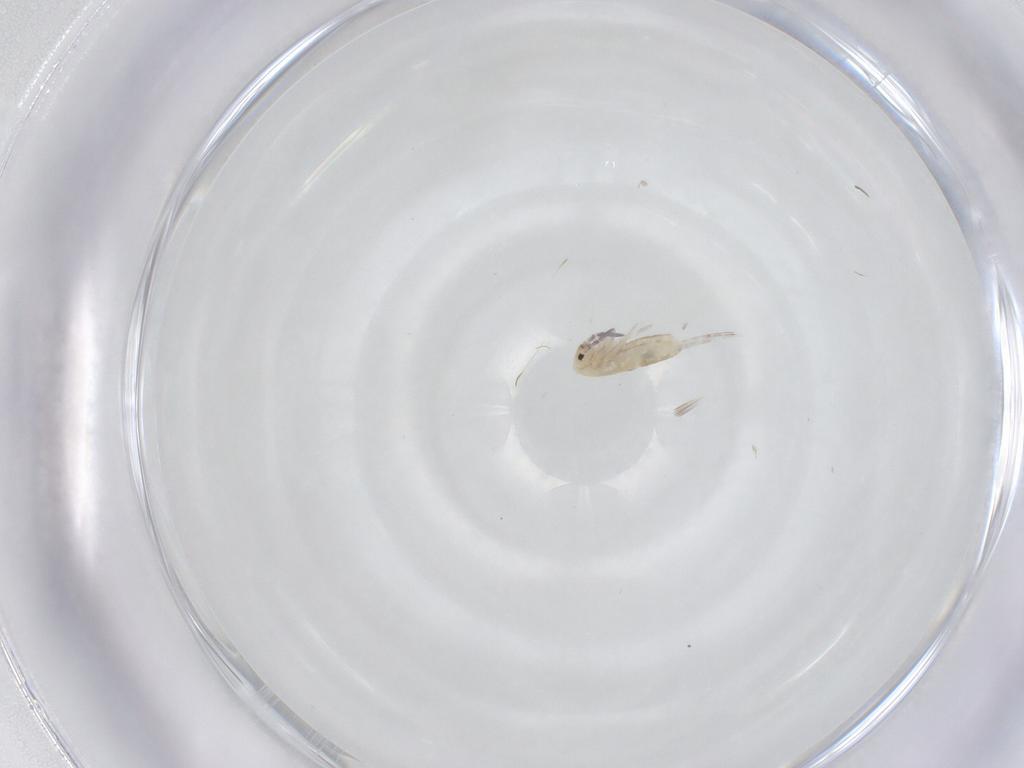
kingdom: Animalia
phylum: Arthropoda
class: Collembola
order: Entomobryomorpha
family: Entomobryidae
